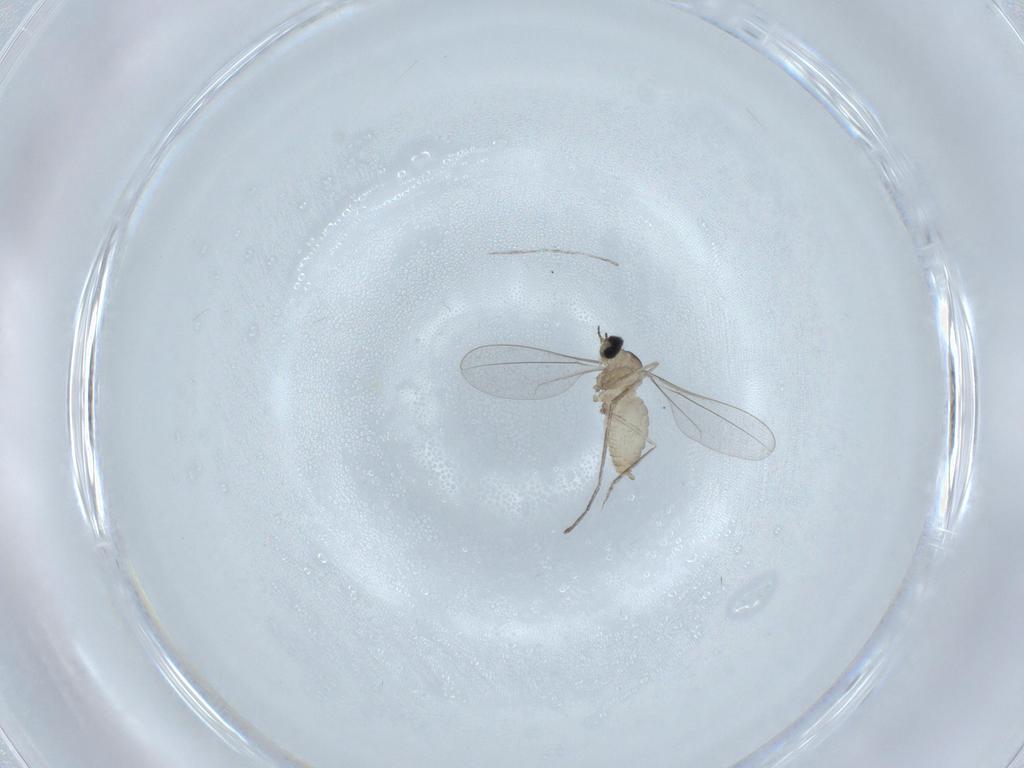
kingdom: Animalia
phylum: Arthropoda
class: Insecta
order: Diptera
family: Cecidomyiidae
